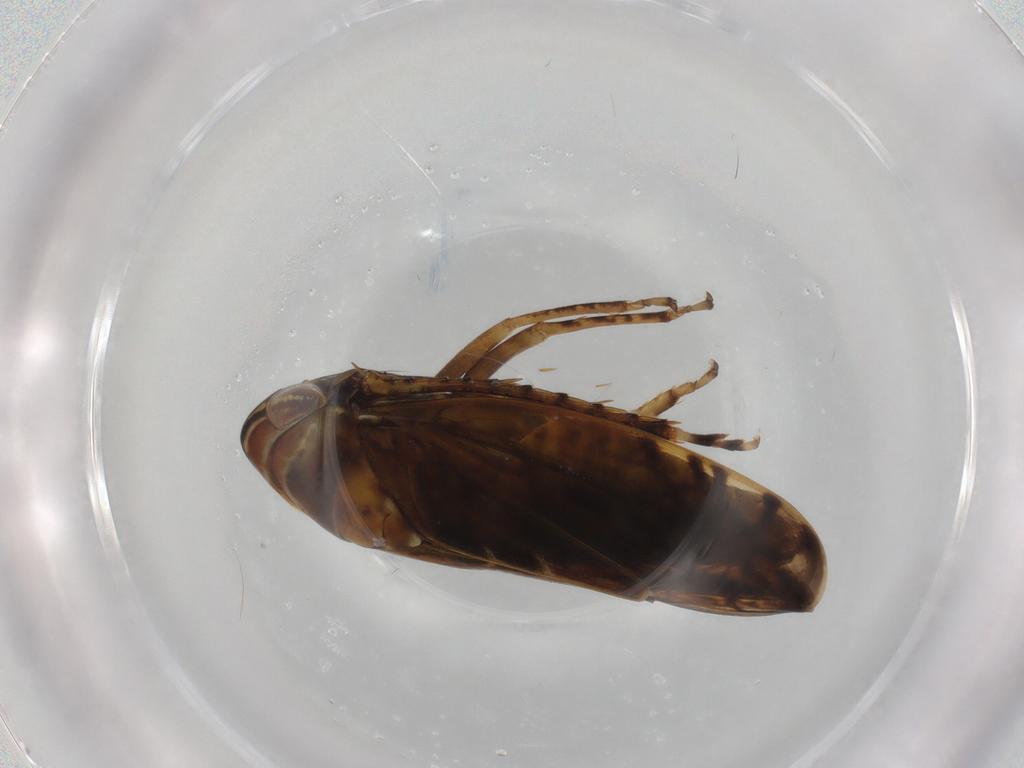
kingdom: Animalia
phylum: Arthropoda
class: Insecta
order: Hemiptera
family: Cicadellidae
